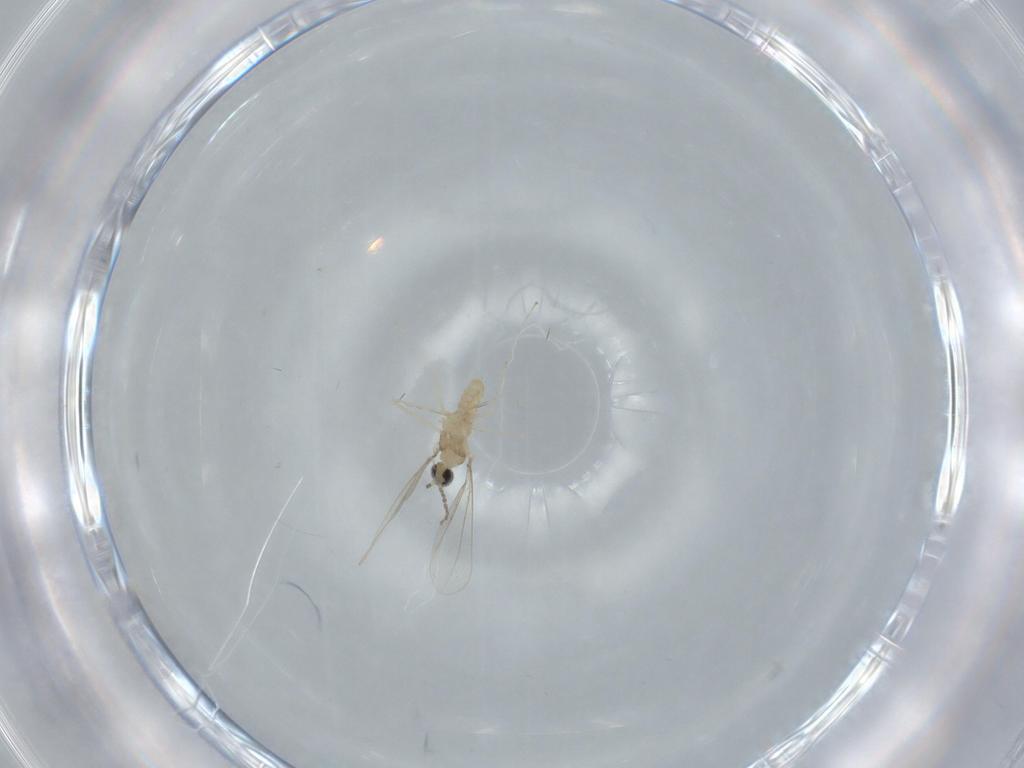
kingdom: Animalia
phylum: Arthropoda
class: Insecta
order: Diptera
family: Cecidomyiidae
